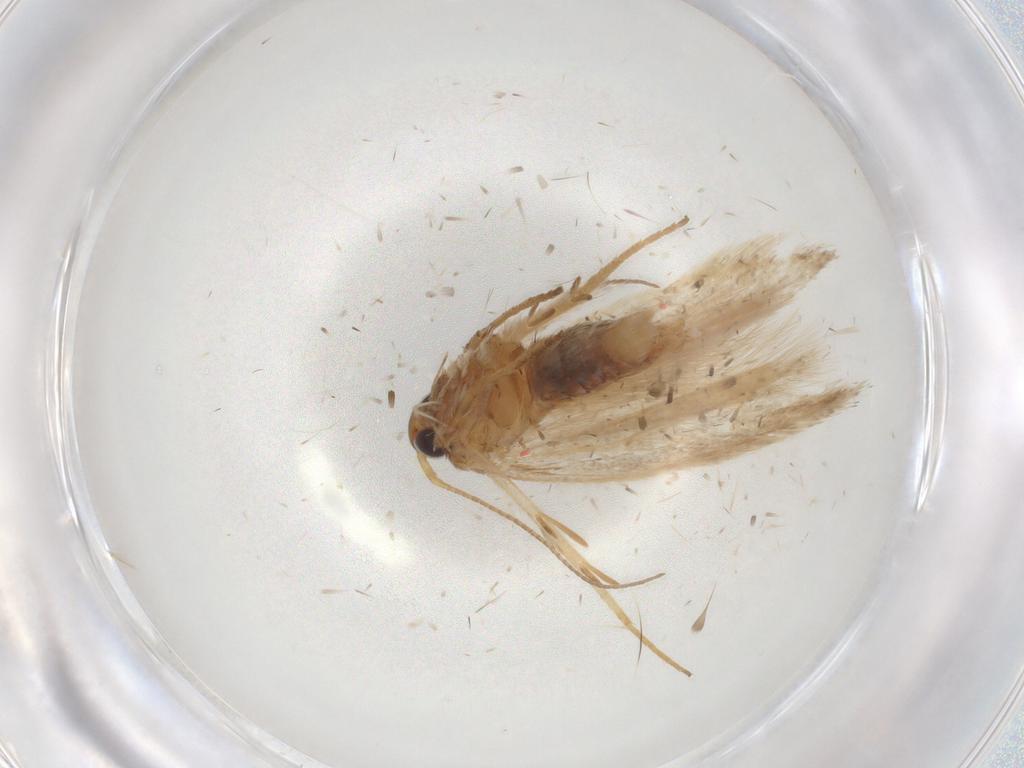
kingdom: Animalia
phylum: Arthropoda
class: Insecta
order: Lepidoptera
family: Gelechiidae
